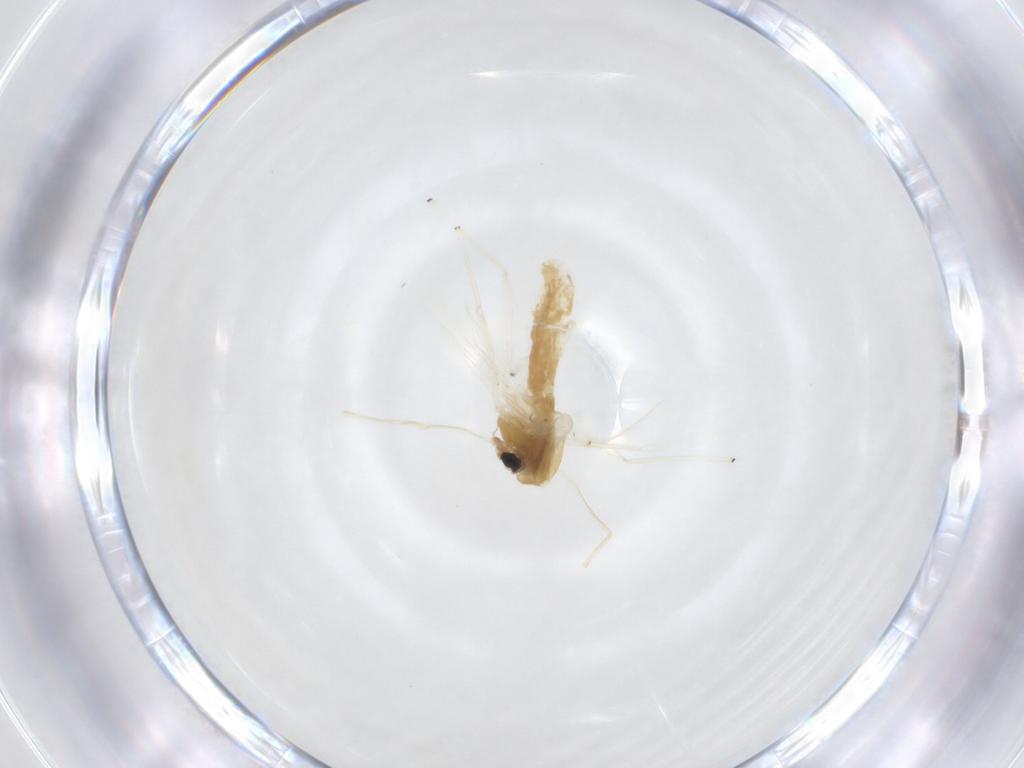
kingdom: Animalia
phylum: Arthropoda
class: Insecta
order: Diptera
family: Chironomidae
